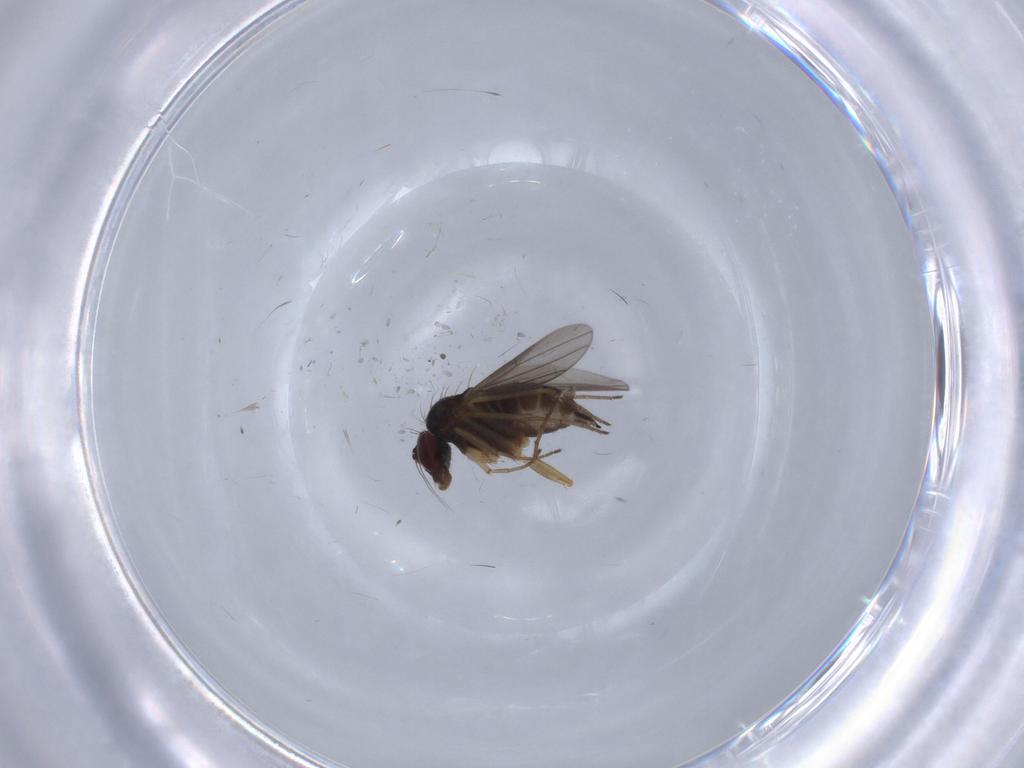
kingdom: Animalia
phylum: Arthropoda
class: Insecta
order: Diptera
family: Dolichopodidae
